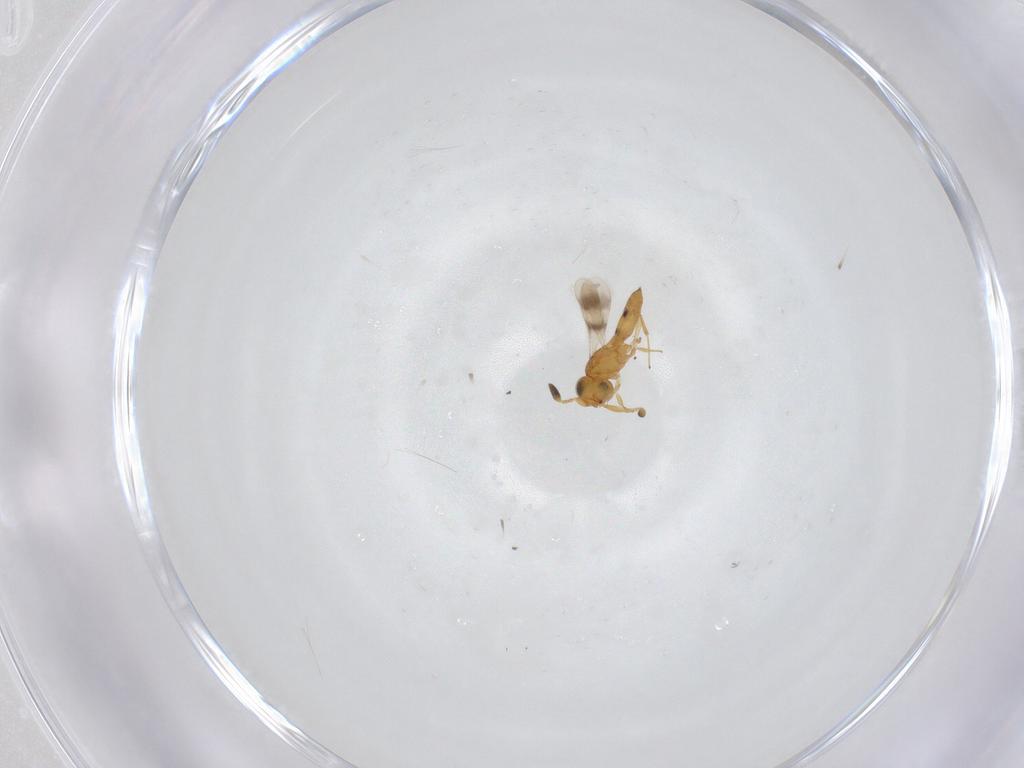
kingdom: Animalia
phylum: Arthropoda
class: Insecta
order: Hymenoptera
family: Scelionidae
